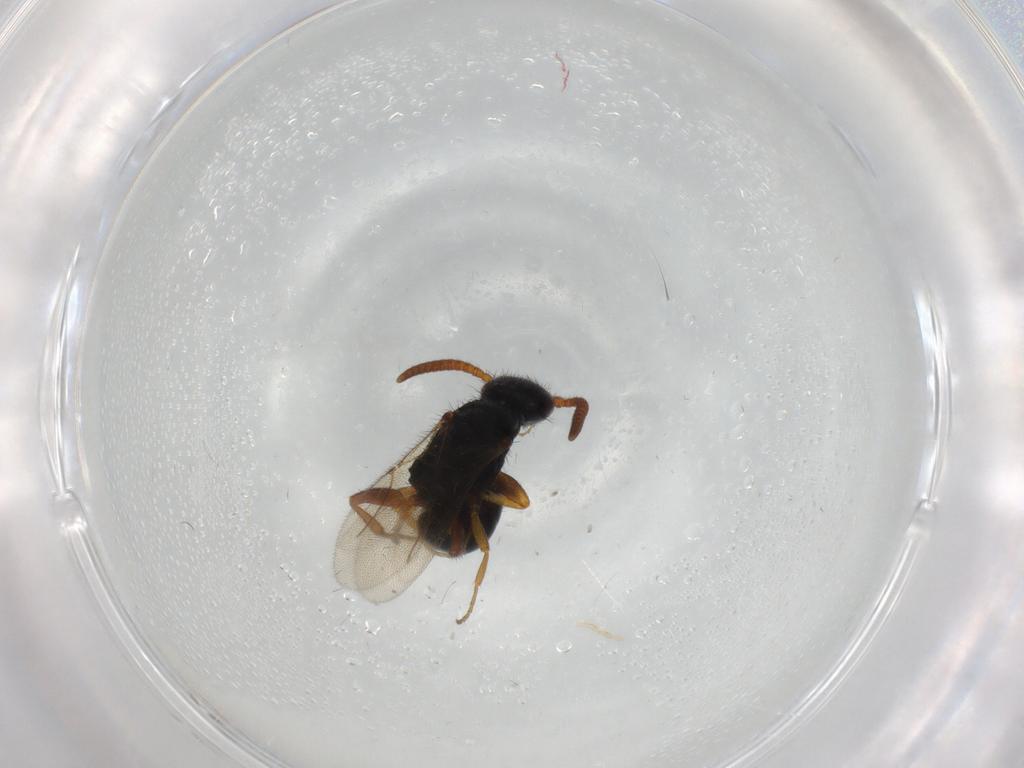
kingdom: Animalia
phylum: Arthropoda
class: Insecta
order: Hymenoptera
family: Bethylidae
